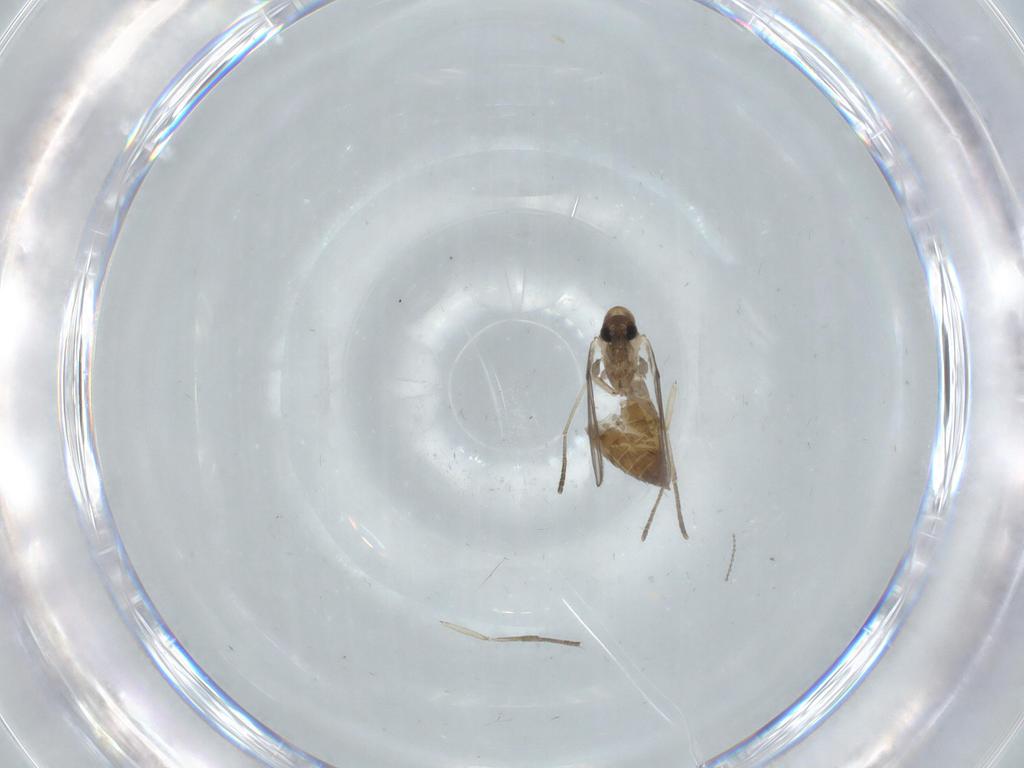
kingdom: Animalia
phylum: Arthropoda
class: Insecta
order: Diptera
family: Psychodidae
